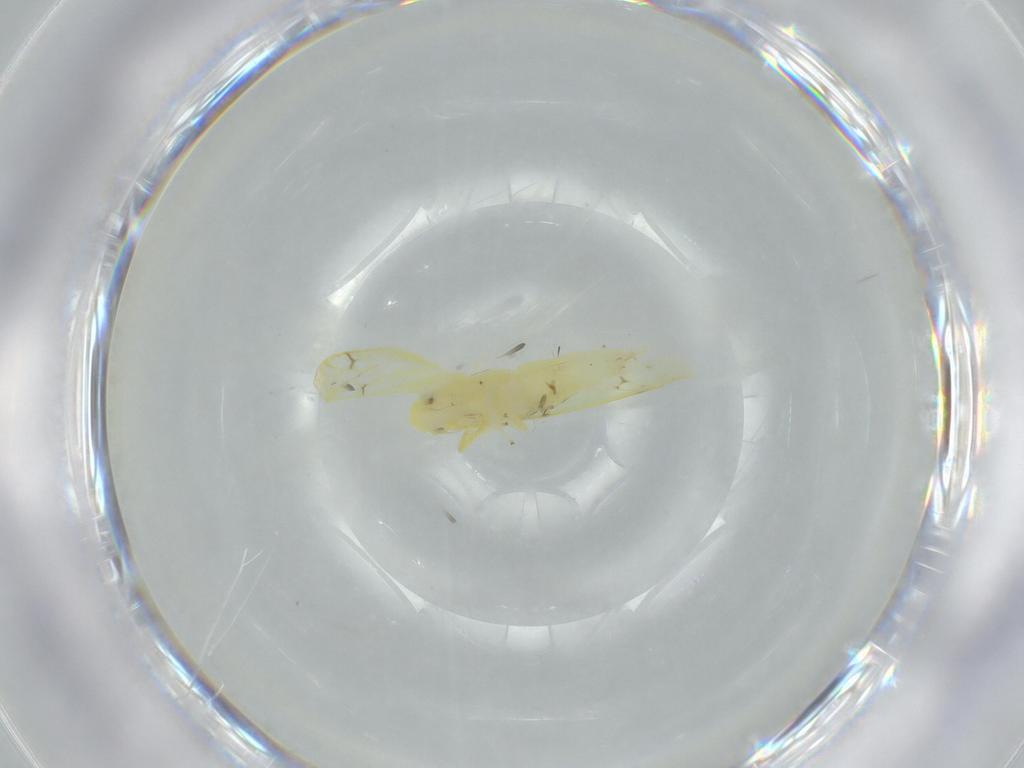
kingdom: Animalia
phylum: Arthropoda
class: Insecta
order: Hemiptera
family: Cicadellidae
